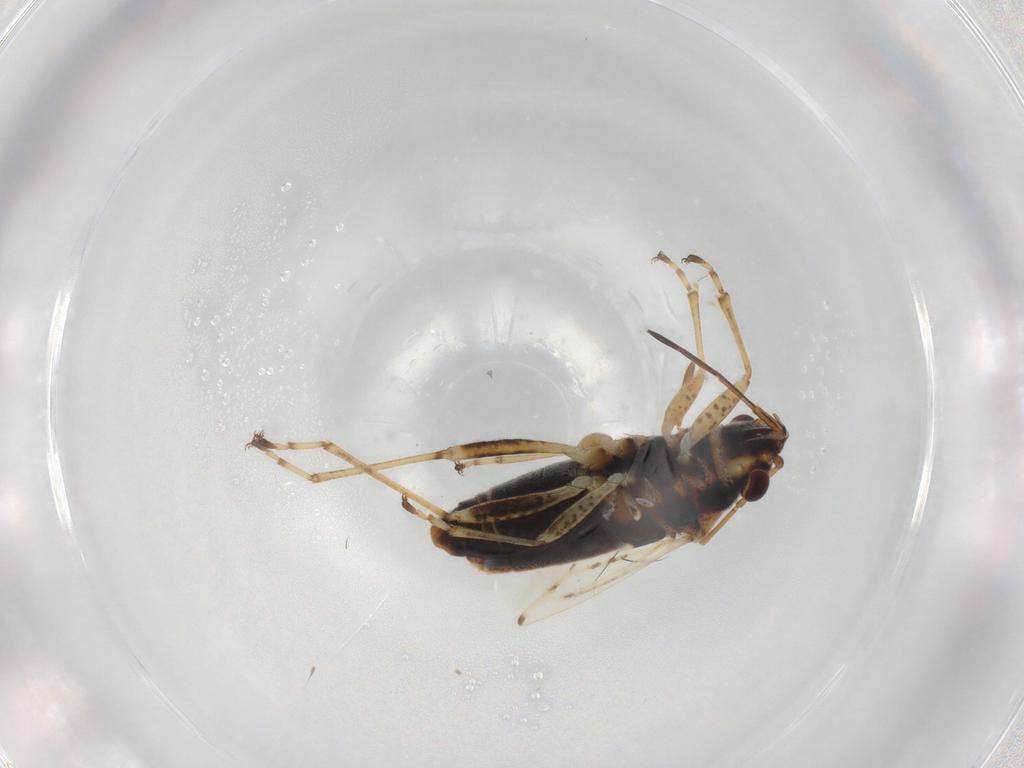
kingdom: Animalia
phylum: Arthropoda
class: Insecta
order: Hemiptera
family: Lygaeidae
